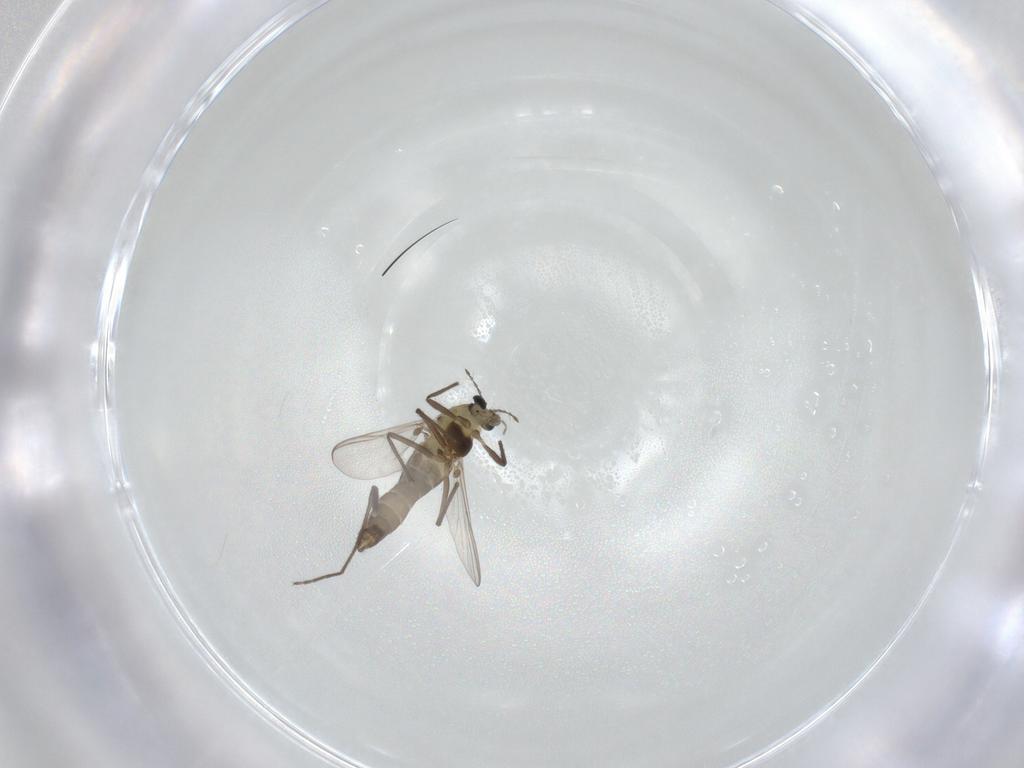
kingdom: Animalia
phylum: Arthropoda
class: Insecta
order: Diptera
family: Chironomidae
